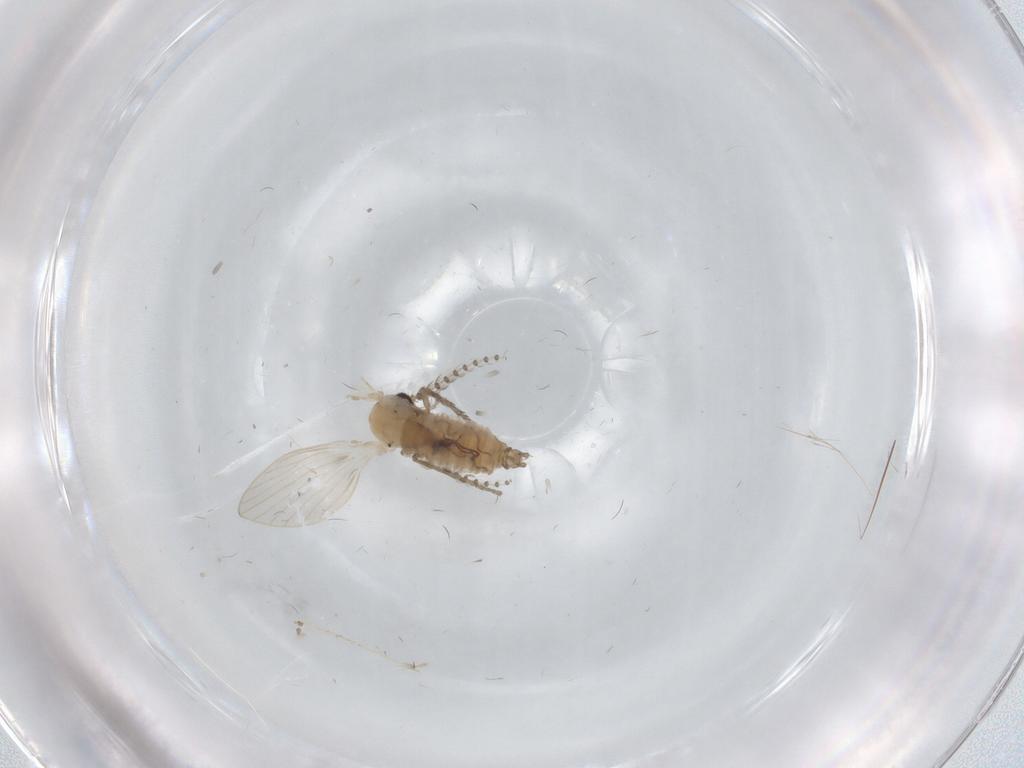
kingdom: Animalia
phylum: Arthropoda
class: Insecta
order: Diptera
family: Psychodidae
